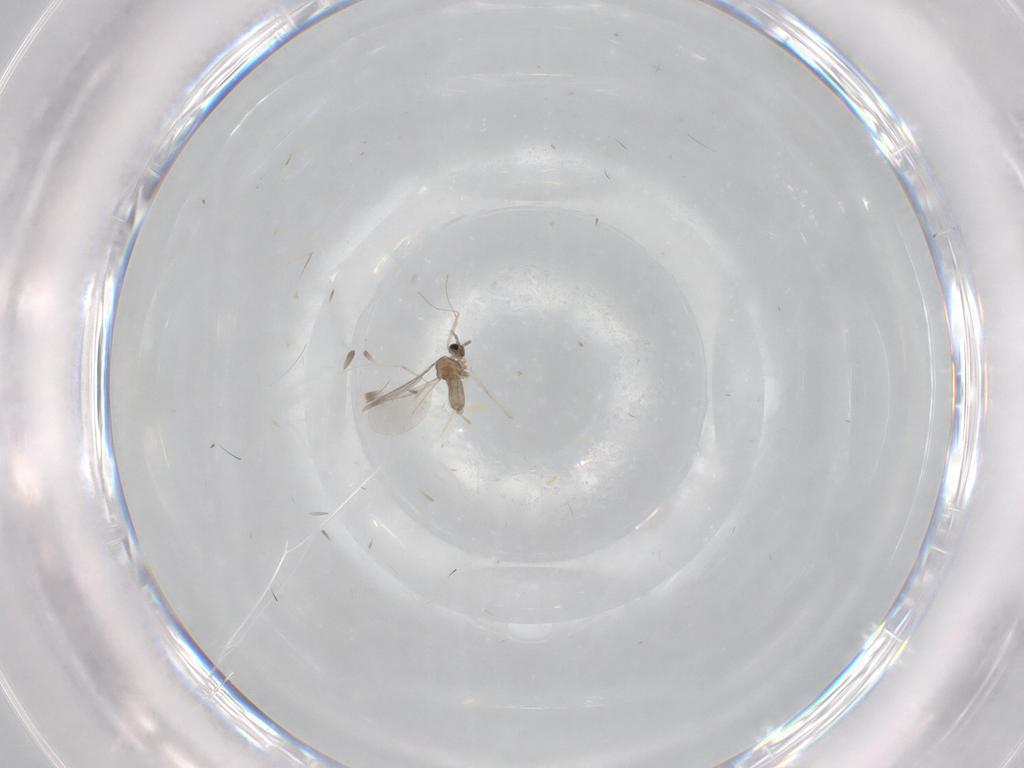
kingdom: Animalia
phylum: Arthropoda
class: Insecta
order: Diptera
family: Cecidomyiidae
